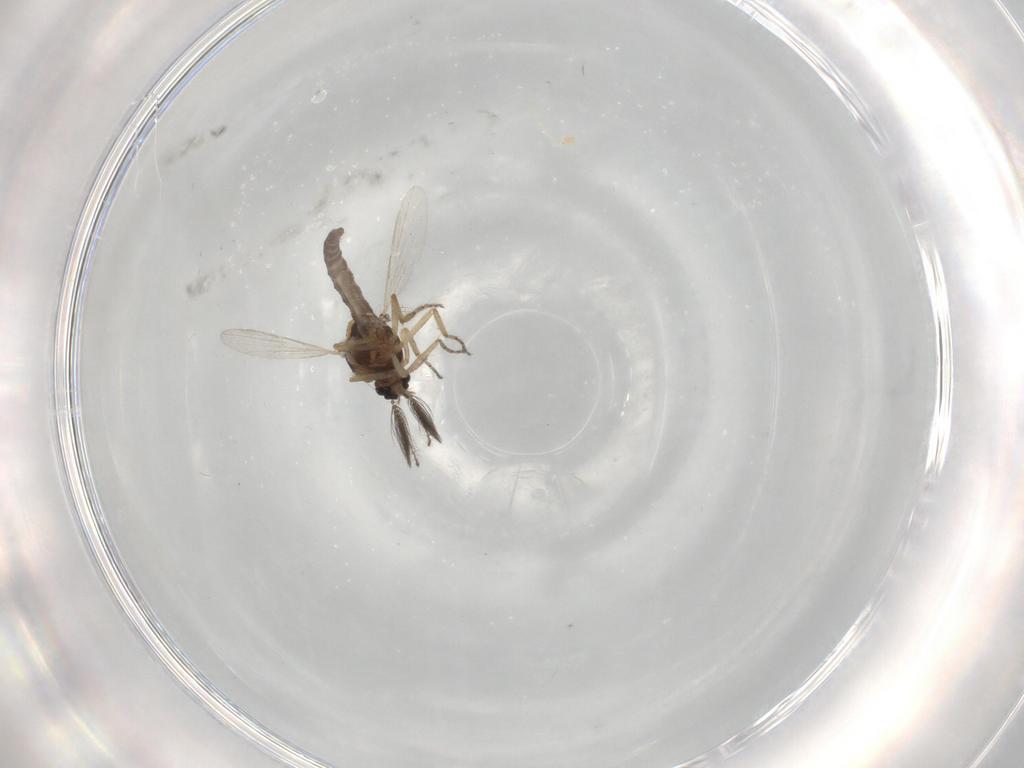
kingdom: Animalia
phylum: Arthropoda
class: Insecta
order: Diptera
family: Ceratopogonidae
